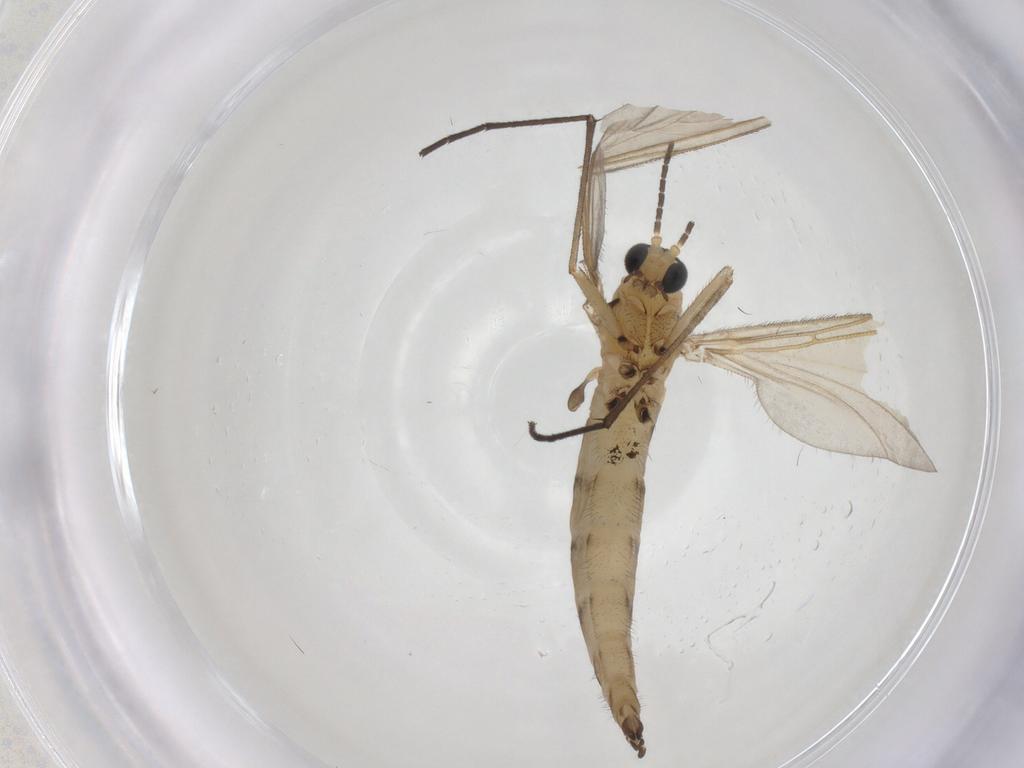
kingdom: Animalia
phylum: Arthropoda
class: Insecta
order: Diptera
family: Sciaridae
